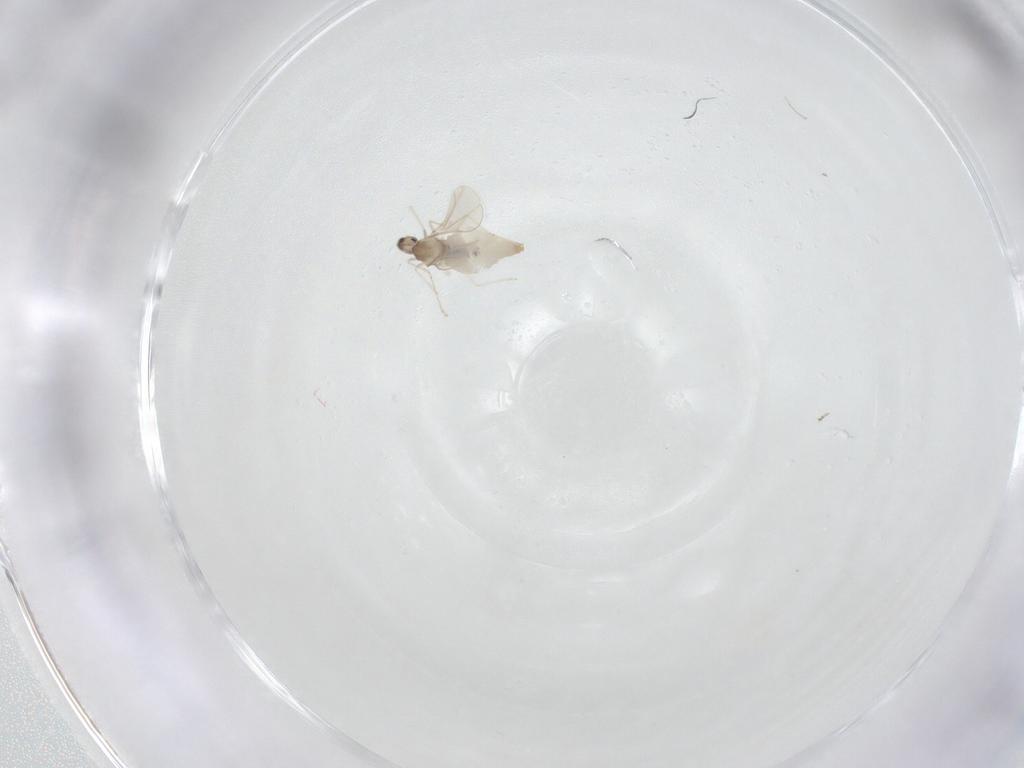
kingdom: Animalia
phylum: Arthropoda
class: Insecta
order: Diptera
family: Ceratopogonidae
